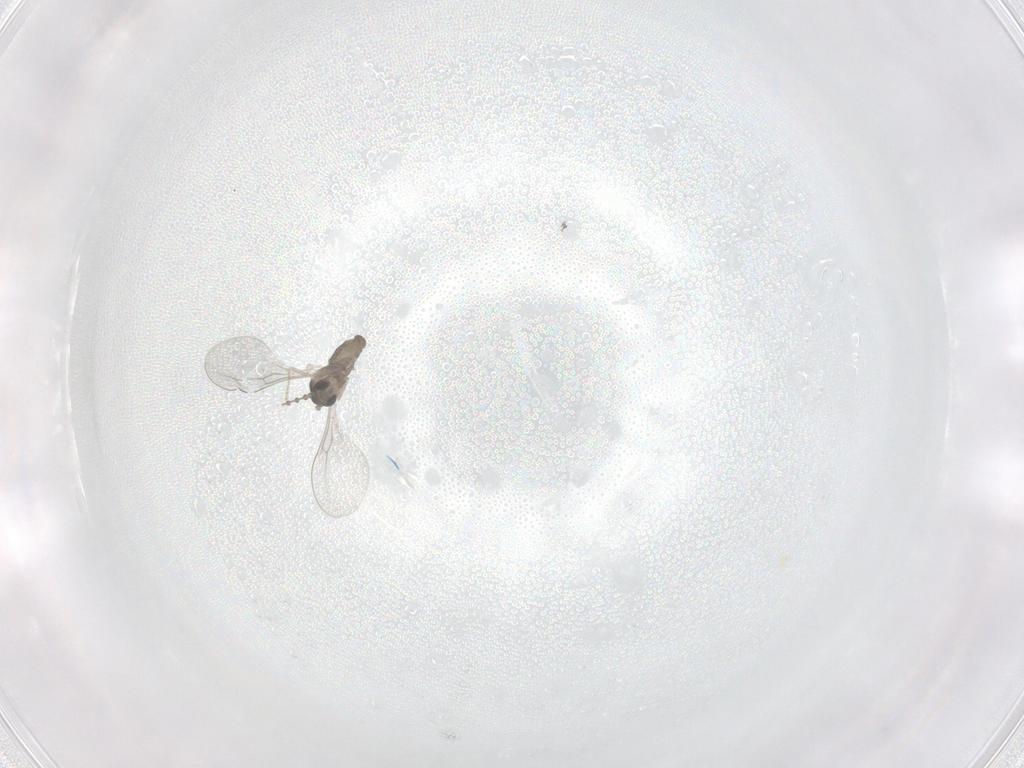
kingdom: Animalia
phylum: Arthropoda
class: Insecta
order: Diptera
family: Cecidomyiidae
